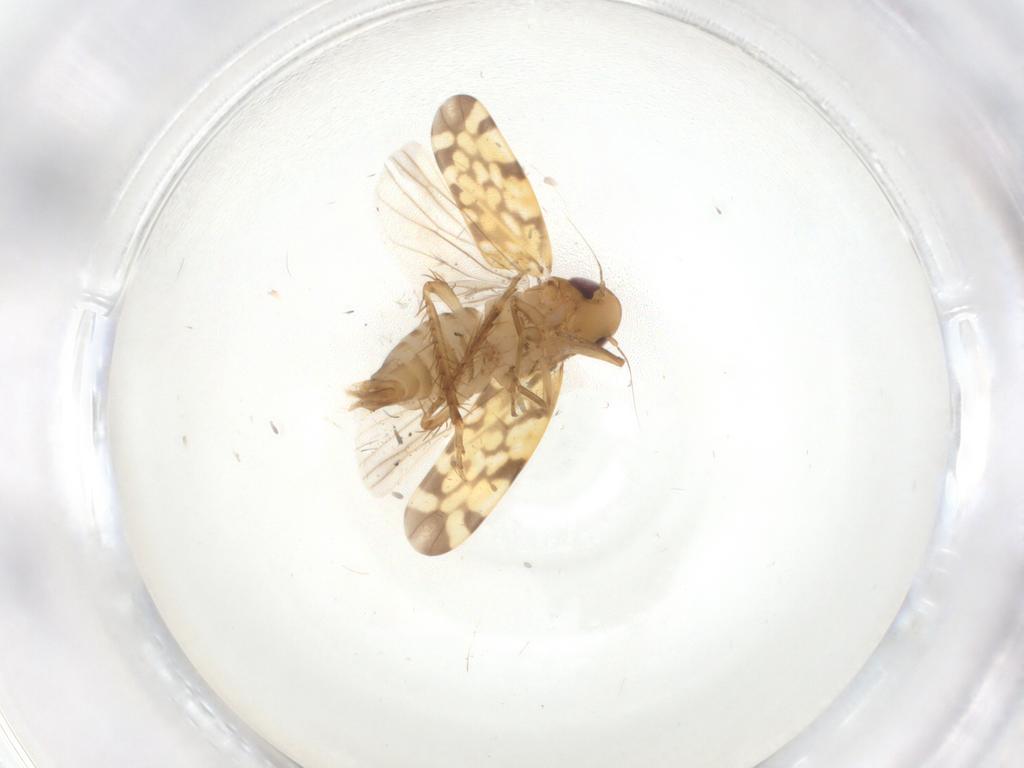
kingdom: Animalia
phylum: Arthropoda
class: Insecta
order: Hemiptera
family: Cicadellidae
